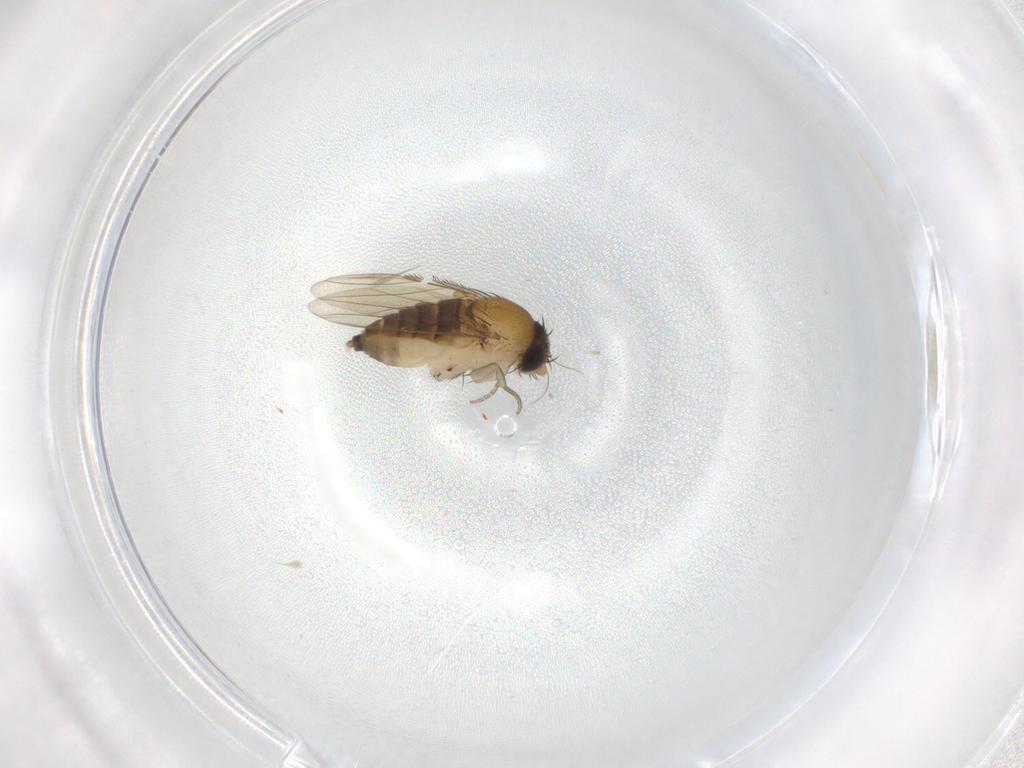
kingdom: Animalia
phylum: Arthropoda
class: Insecta
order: Diptera
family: Phoridae
